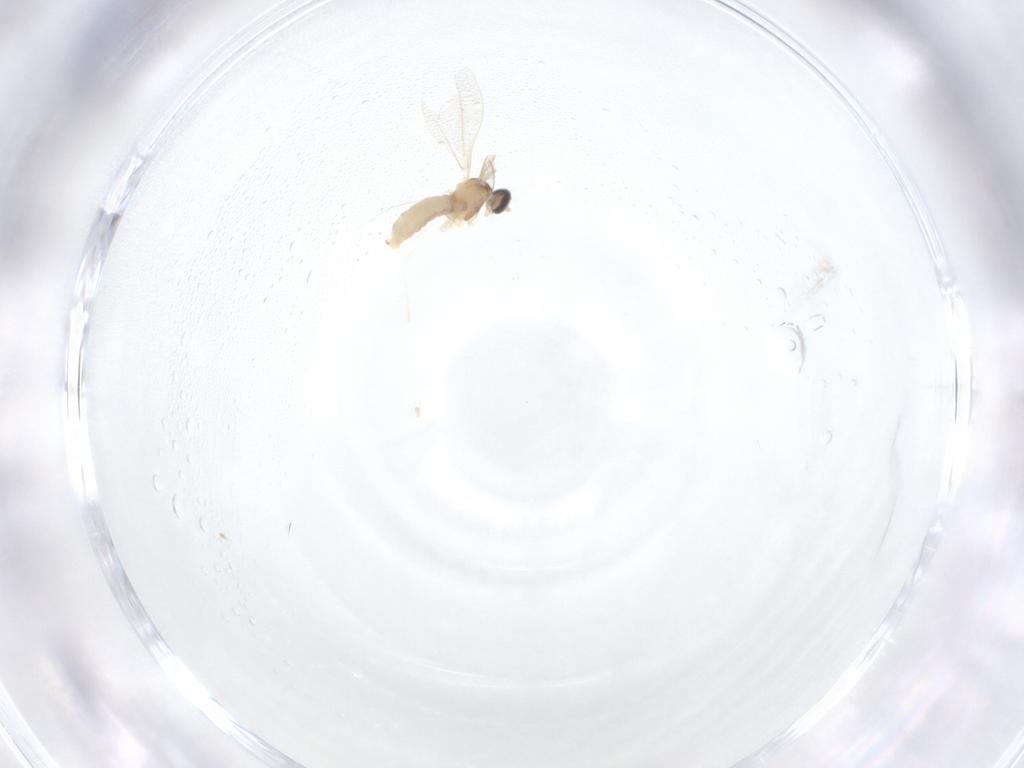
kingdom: Animalia
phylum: Arthropoda
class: Insecta
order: Diptera
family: Cecidomyiidae
